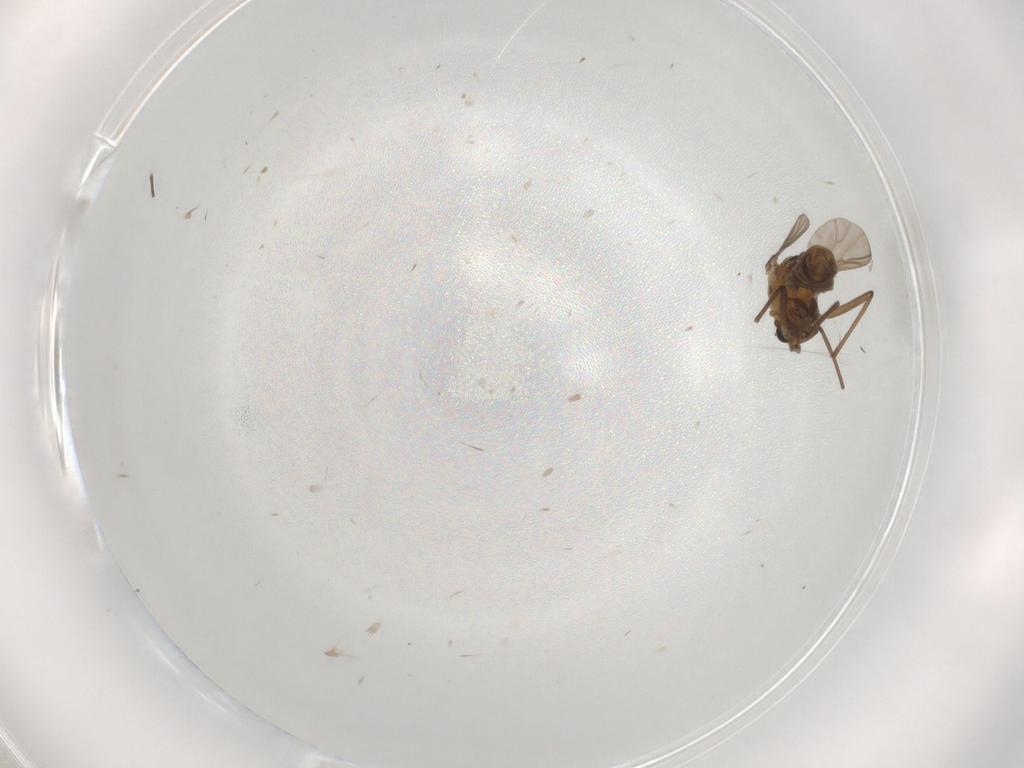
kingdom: Animalia
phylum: Arthropoda
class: Insecta
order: Diptera
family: Chironomidae
